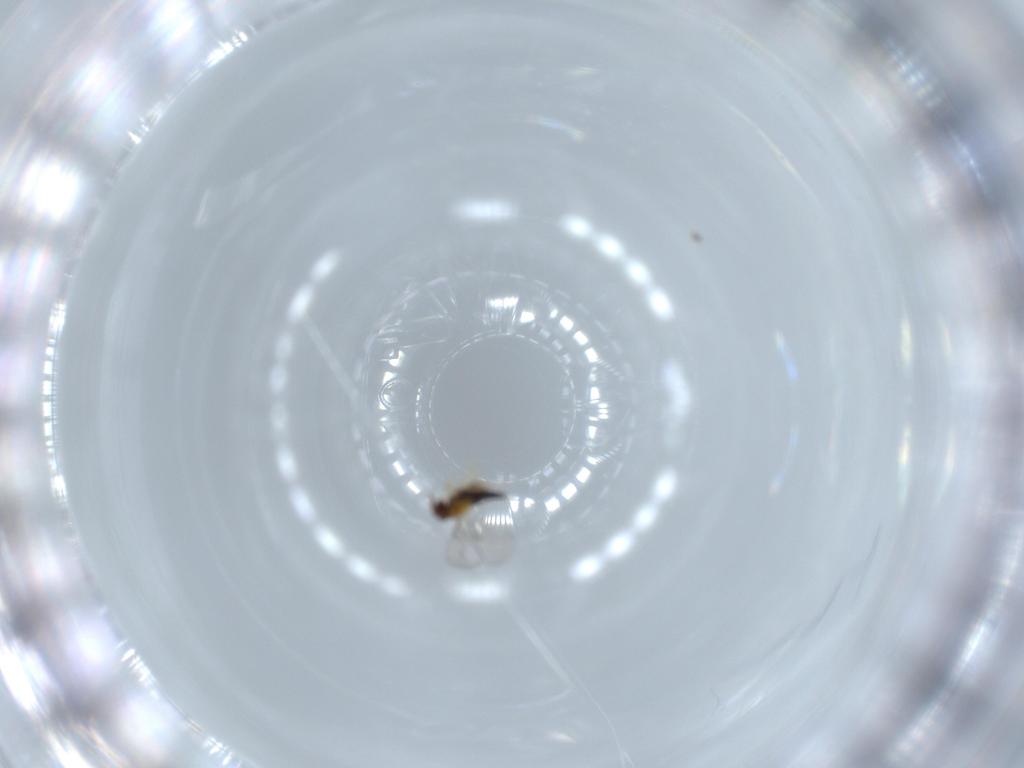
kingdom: Animalia
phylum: Arthropoda
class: Insecta
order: Hymenoptera
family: Trichogrammatidae
